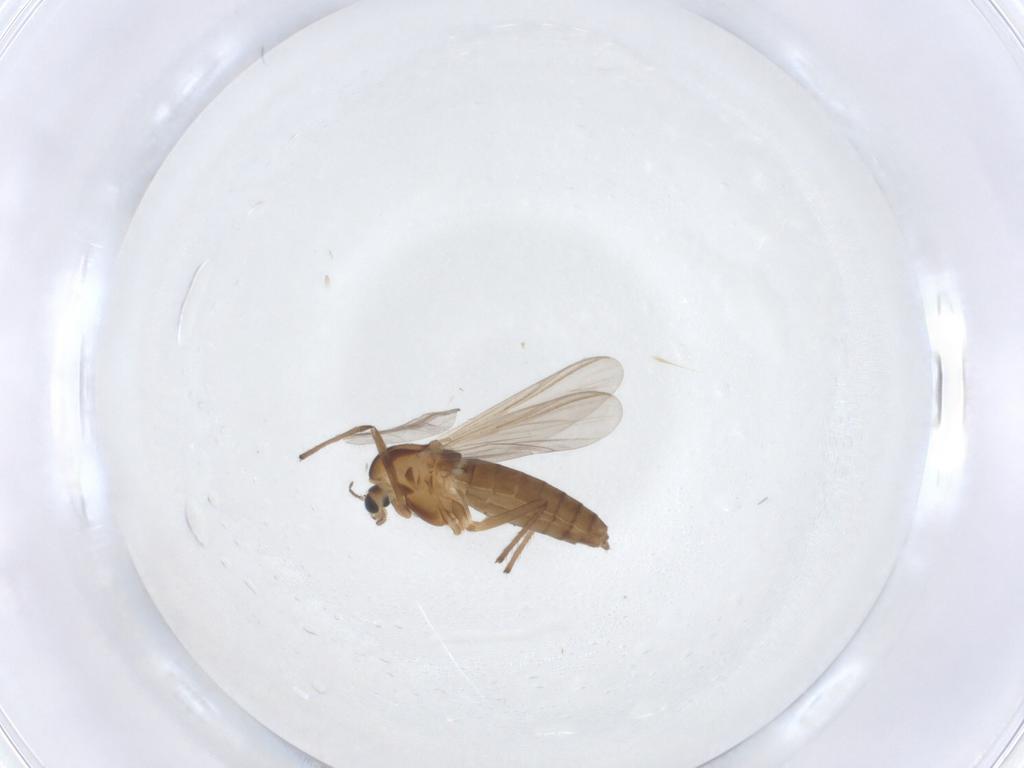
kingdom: Animalia
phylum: Arthropoda
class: Insecta
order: Diptera
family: Chironomidae
